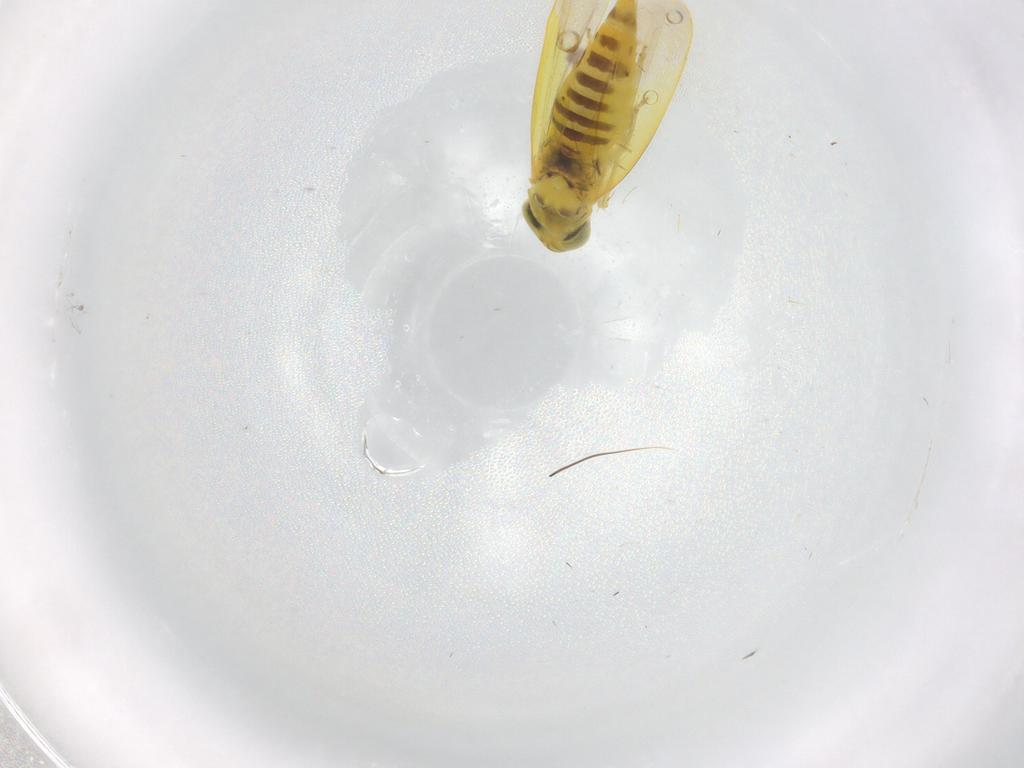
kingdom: Animalia
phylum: Arthropoda
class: Insecta
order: Hemiptera
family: Cicadellidae
